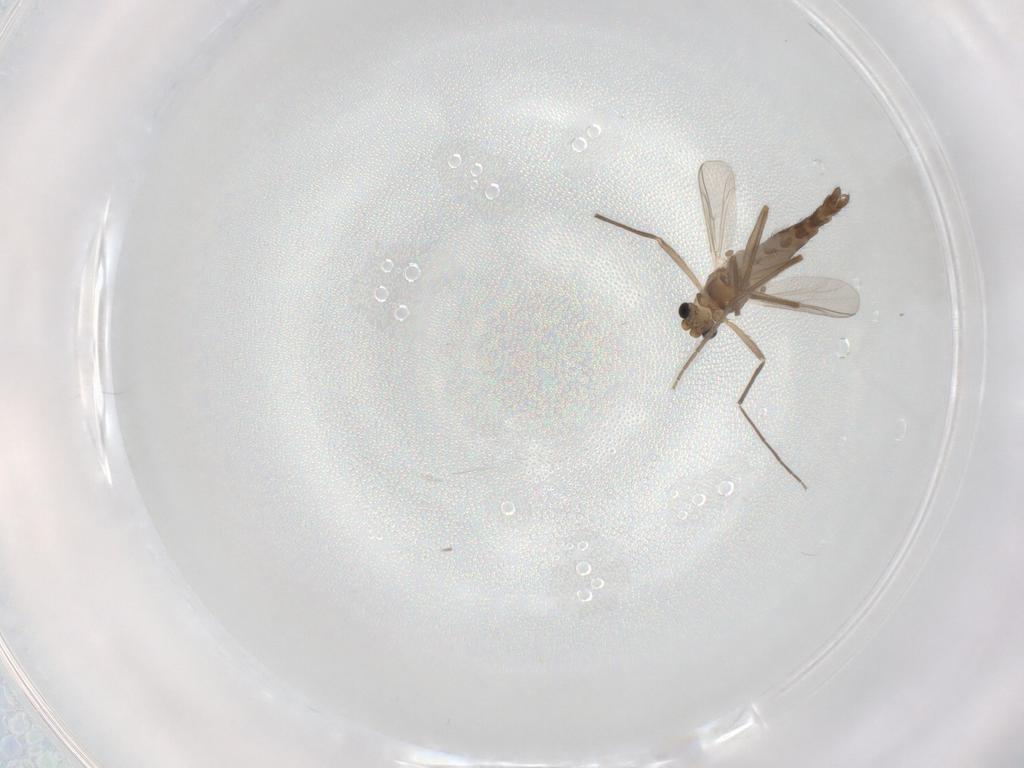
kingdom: Animalia
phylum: Arthropoda
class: Insecta
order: Diptera
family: Chironomidae
